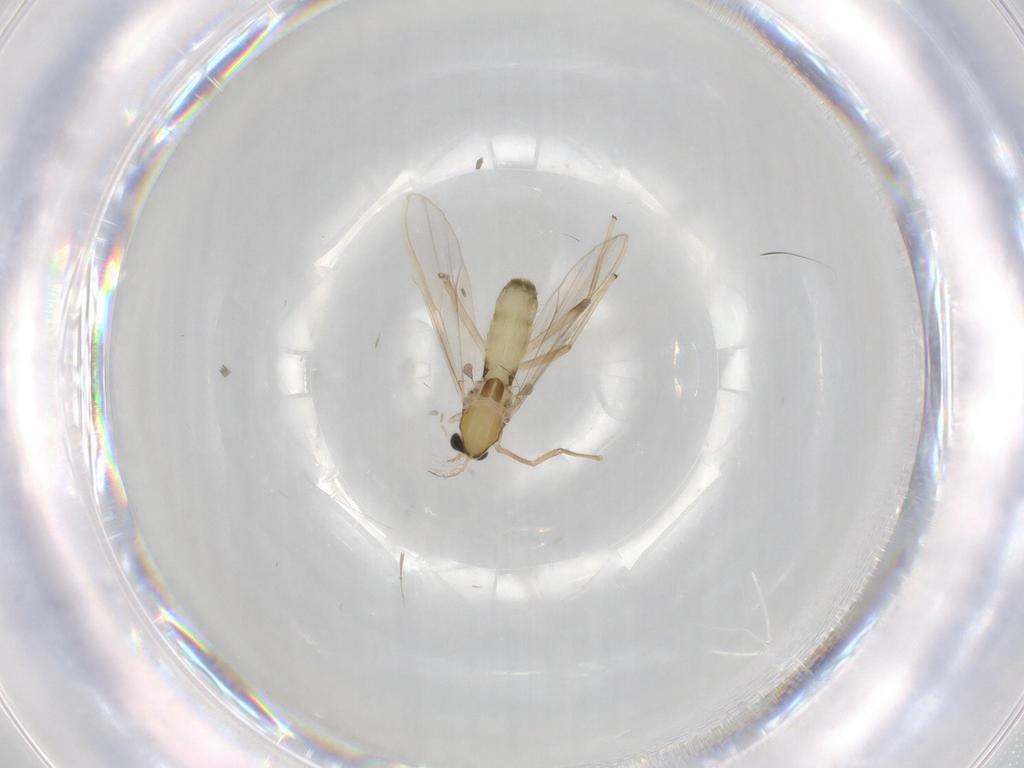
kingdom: Animalia
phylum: Arthropoda
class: Insecta
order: Diptera
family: Chironomidae
